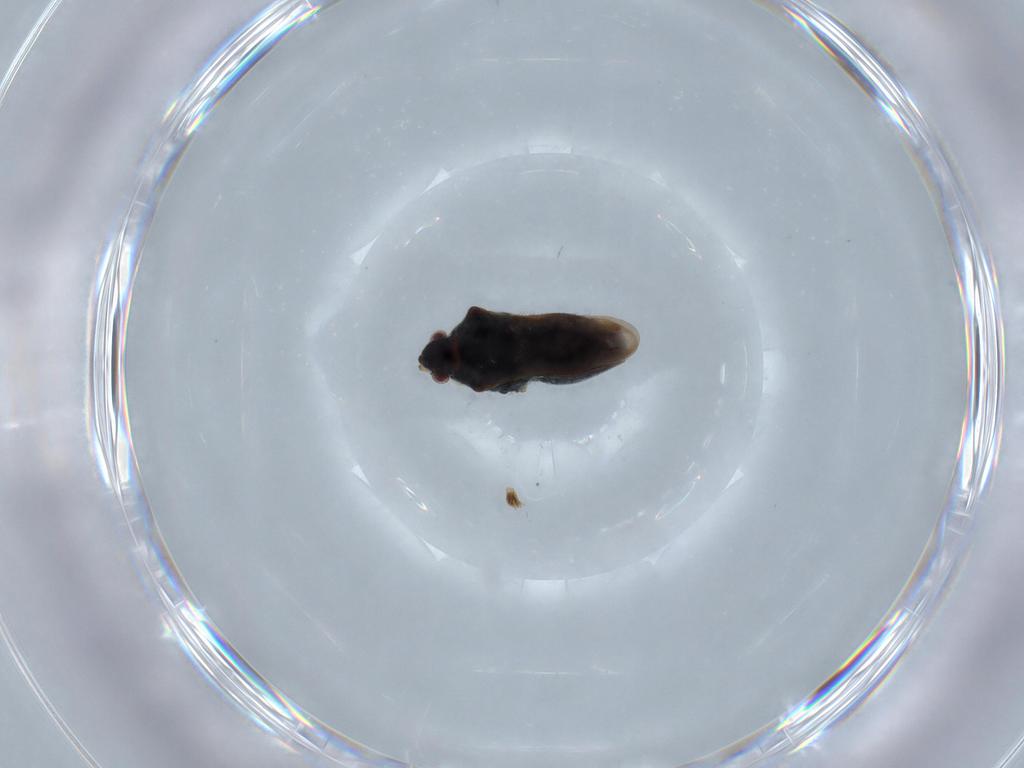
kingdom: Animalia
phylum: Arthropoda
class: Insecta
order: Hemiptera
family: Veliidae
